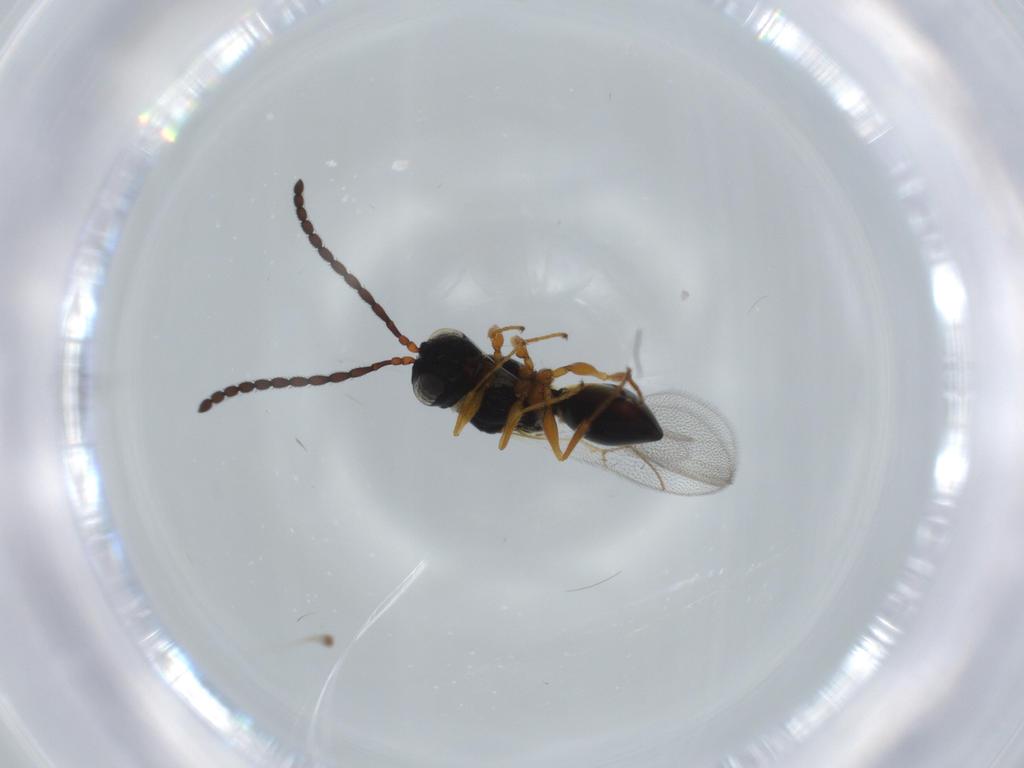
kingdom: Animalia
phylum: Arthropoda
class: Insecta
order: Hymenoptera
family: Figitidae
